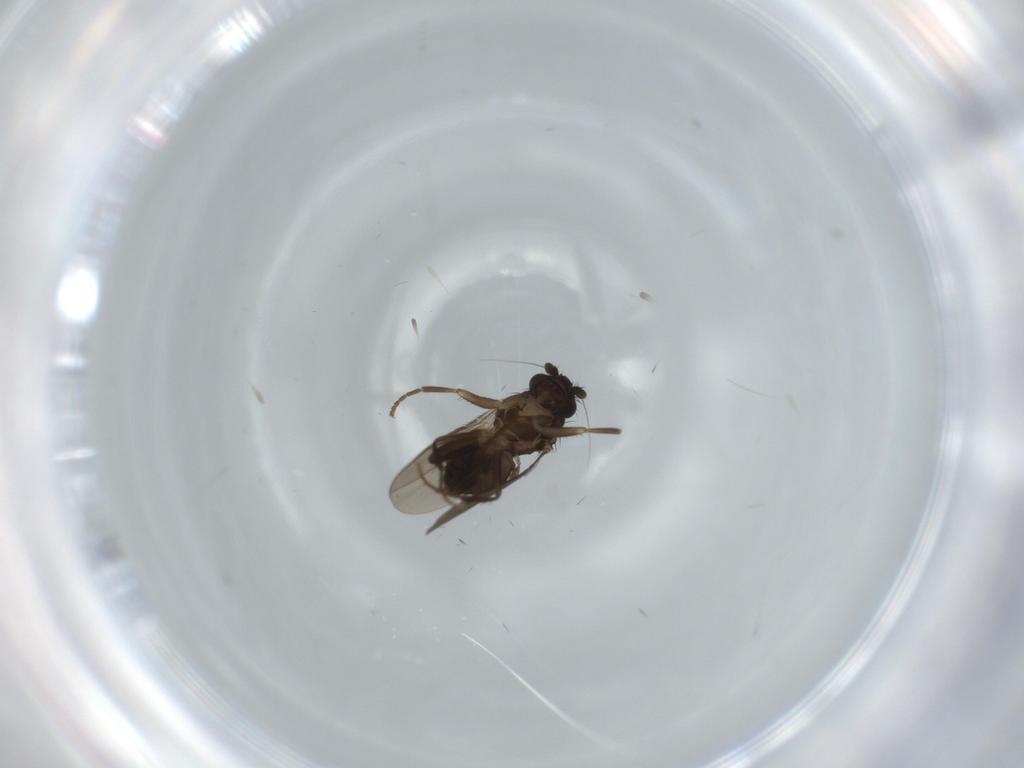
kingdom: Animalia
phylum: Arthropoda
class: Insecta
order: Diptera
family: Sphaeroceridae
